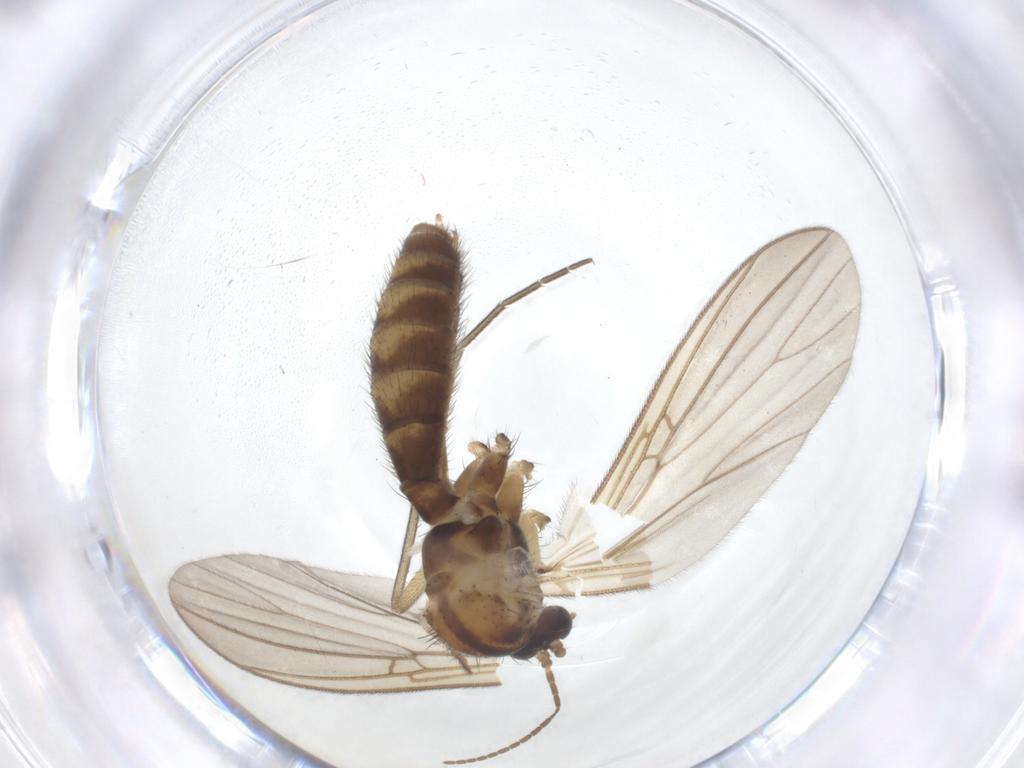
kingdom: Animalia
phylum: Arthropoda
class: Insecta
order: Diptera
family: Mycetophilidae
